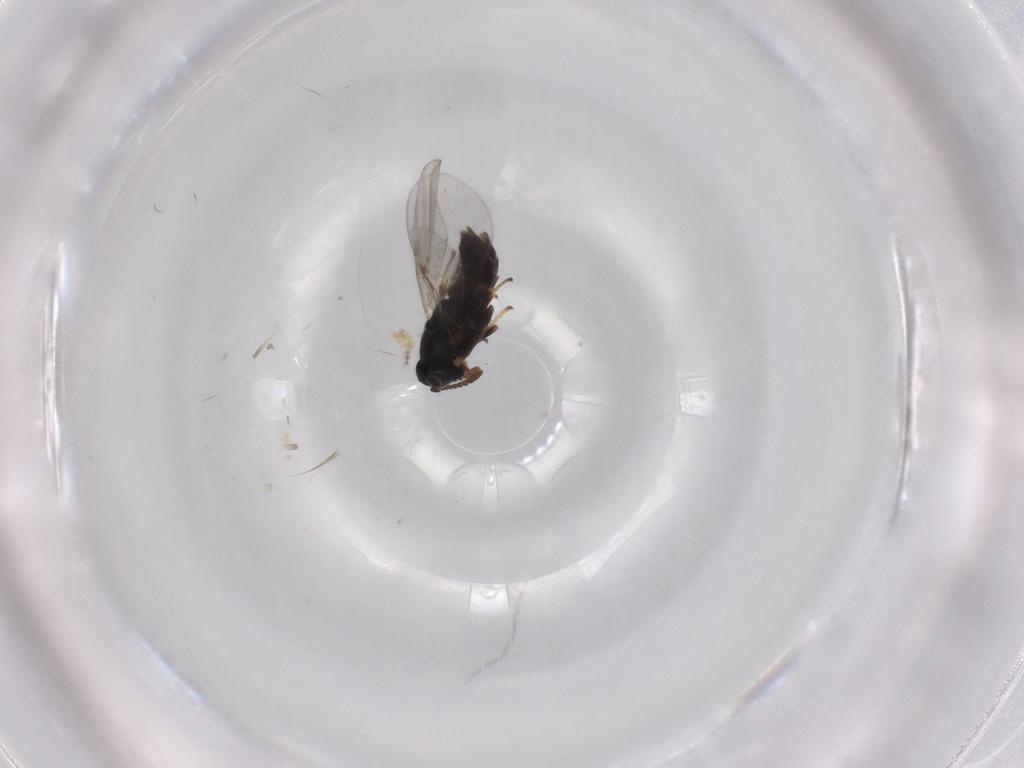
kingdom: Animalia
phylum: Arthropoda
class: Insecta
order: Hymenoptera
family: Encyrtidae
